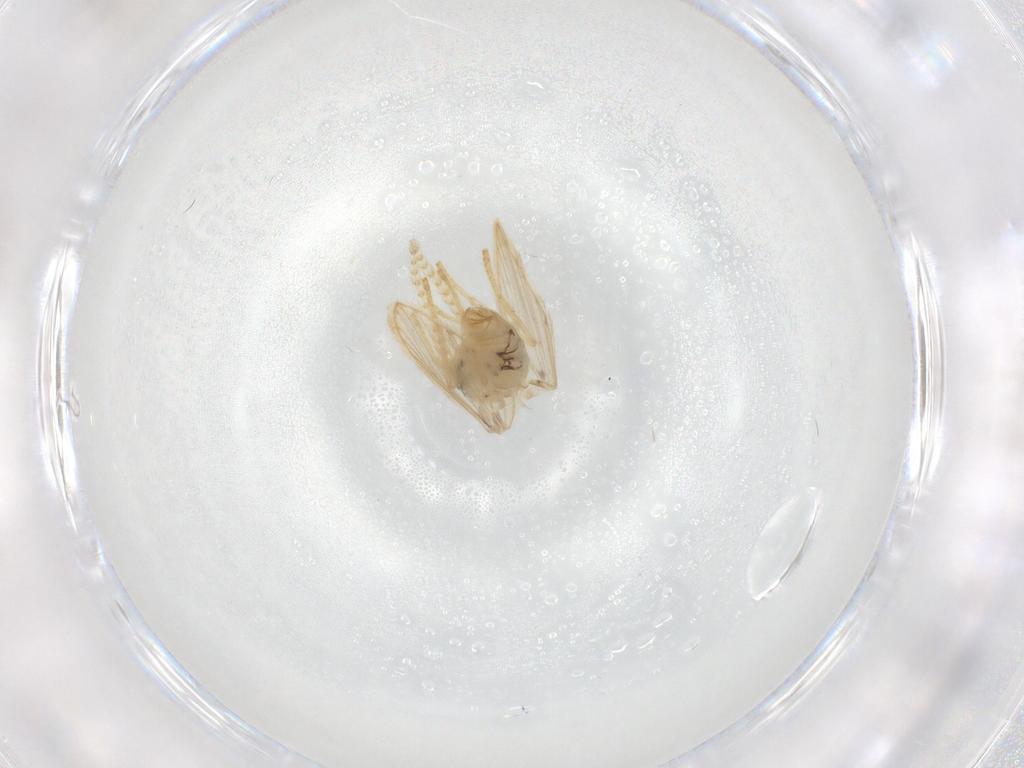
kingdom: Animalia
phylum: Arthropoda
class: Insecta
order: Diptera
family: Psychodidae
